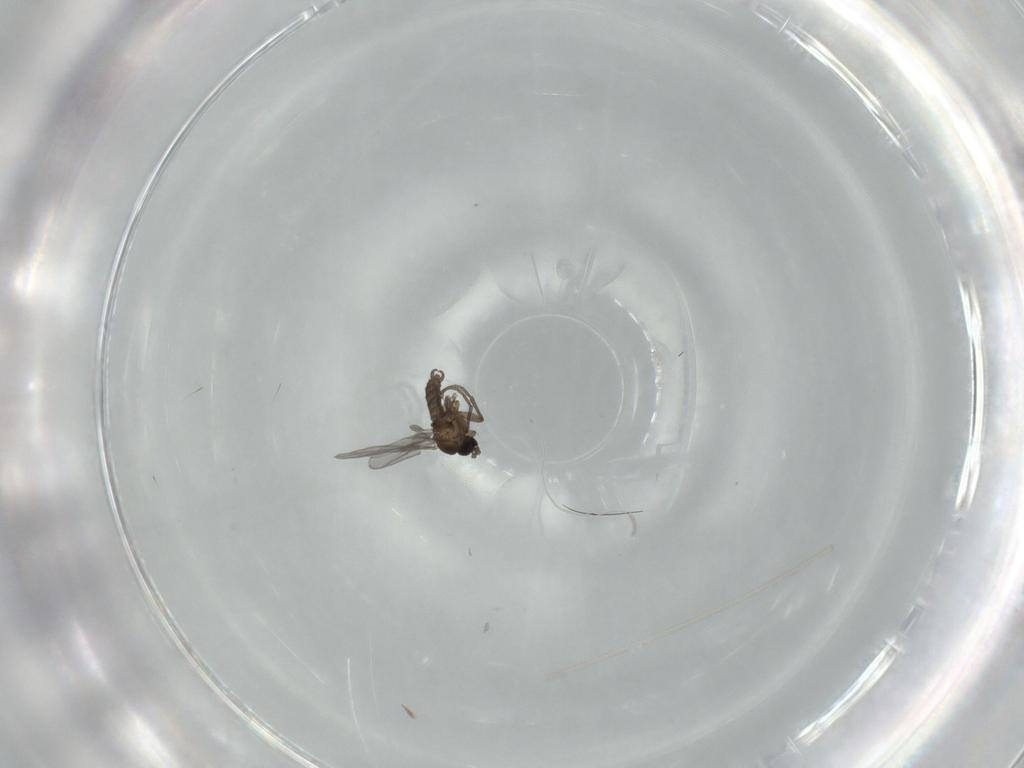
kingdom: Animalia
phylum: Arthropoda
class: Insecta
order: Diptera
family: Sciaridae
